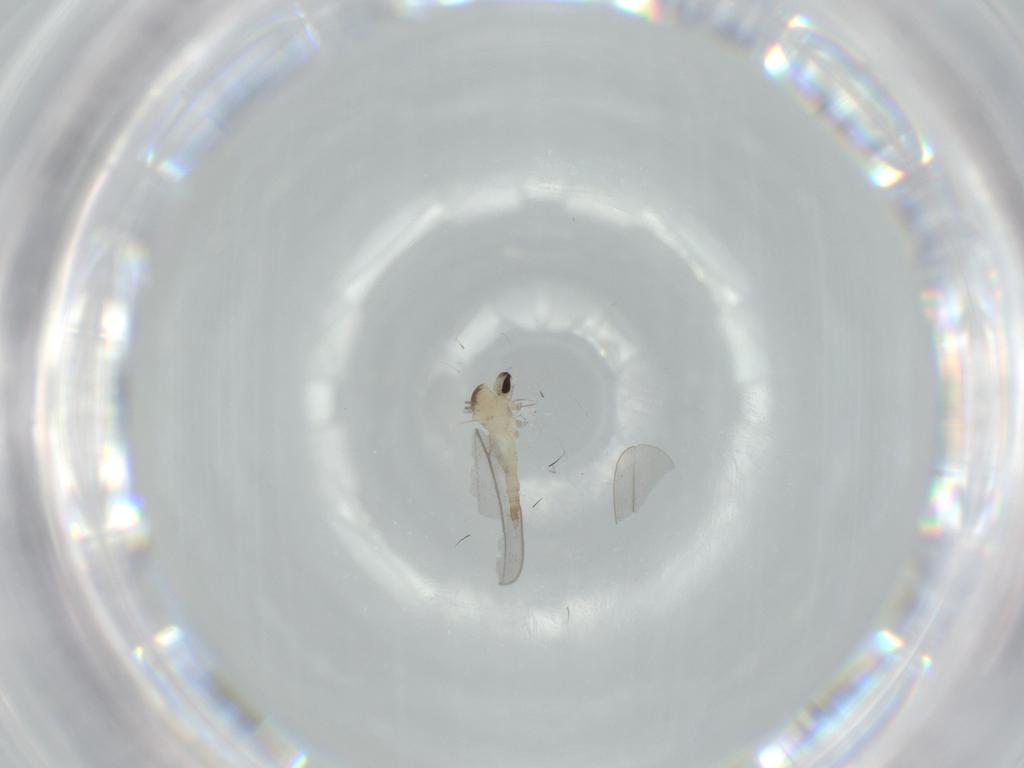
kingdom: Animalia
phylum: Arthropoda
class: Insecta
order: Diptera
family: Cecidomyiidae
